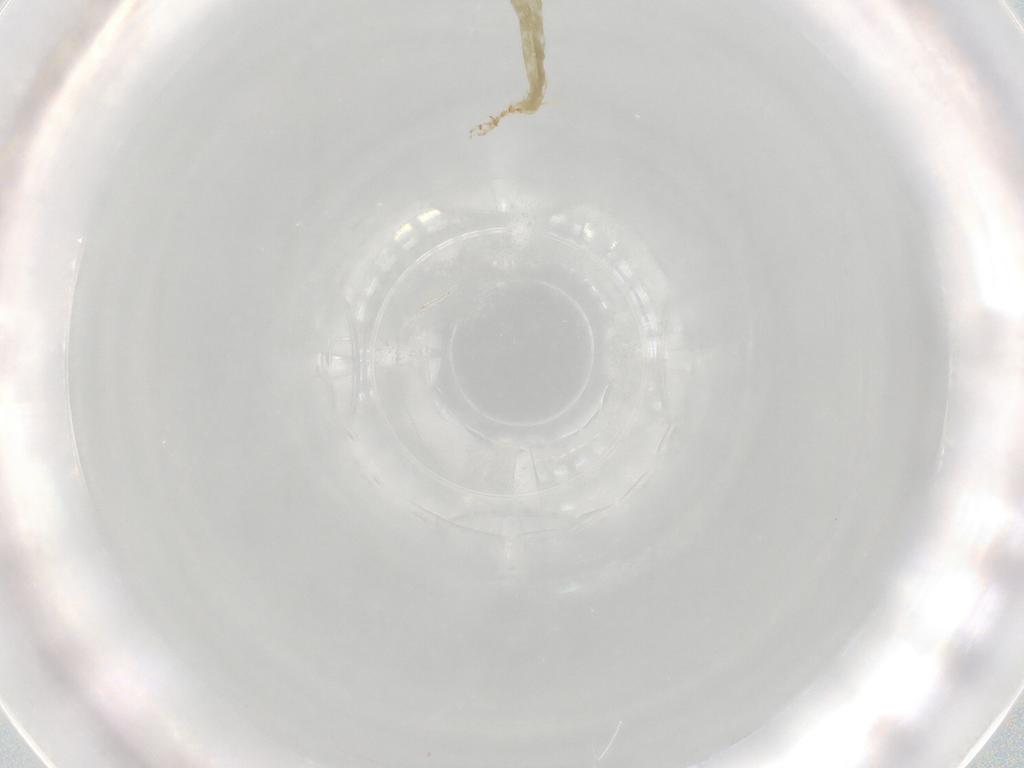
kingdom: Animalia
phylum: Arthropoda
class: Insecta
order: Diptera
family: Chironomidae
